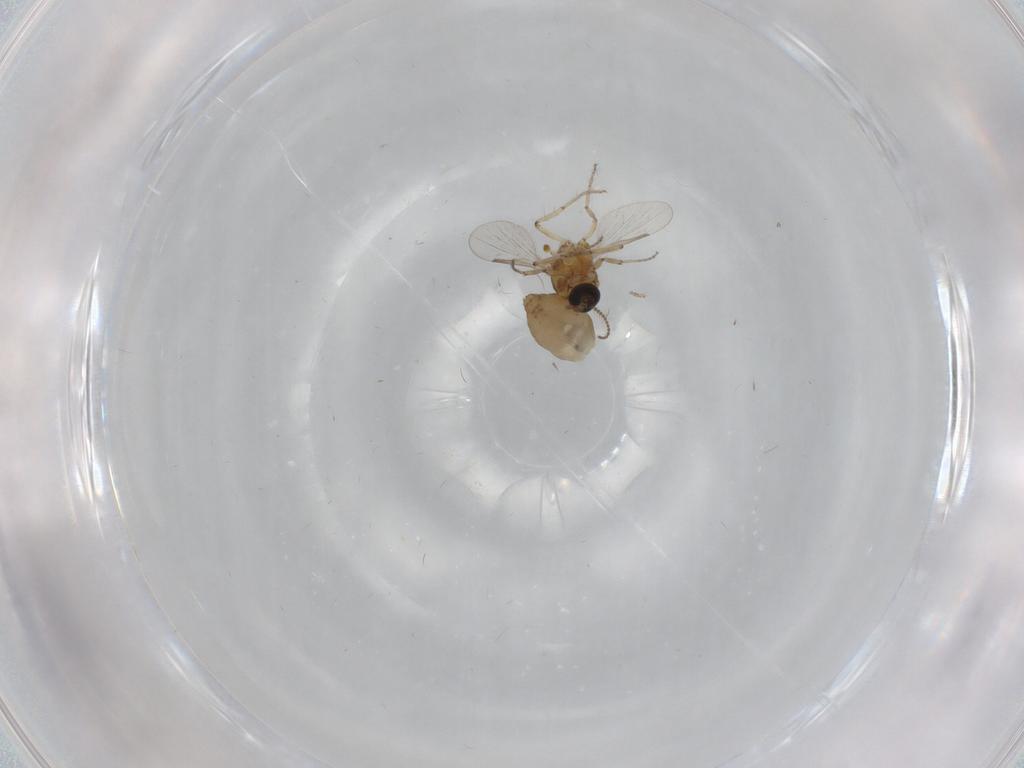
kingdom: Animalia
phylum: Arthropoda
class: Insecta
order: Diptera
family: Ceratopogonidae
